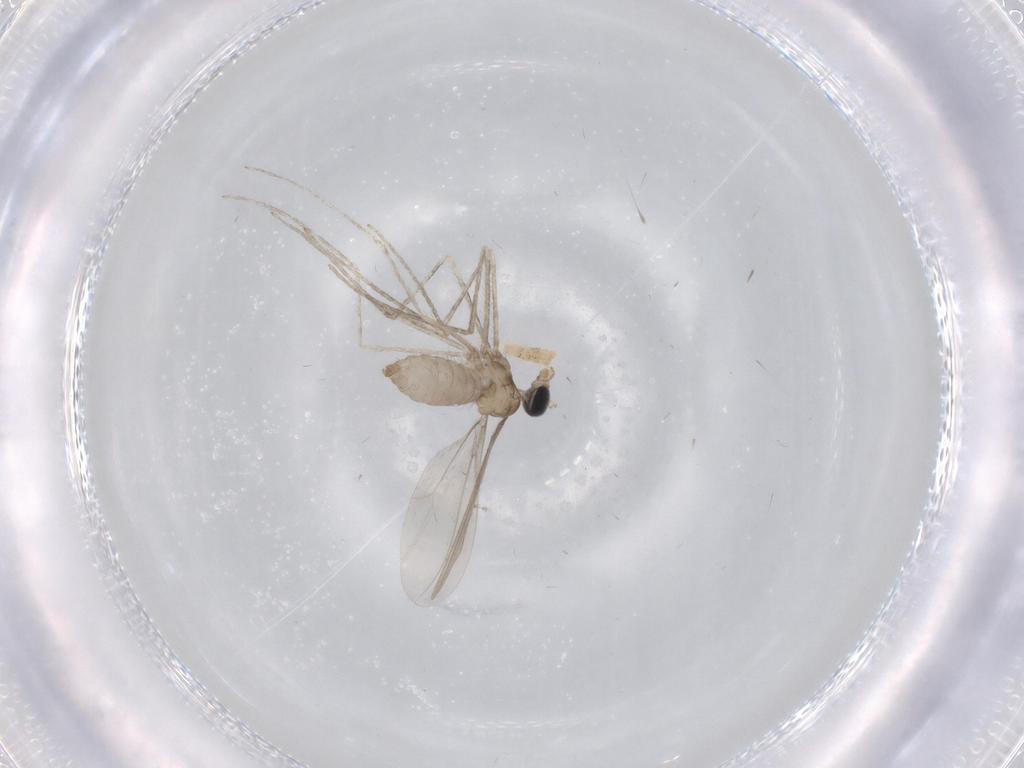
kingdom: Animalia
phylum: Arthropoda
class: Insecta
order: Diptera
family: Cecidomyiidae
